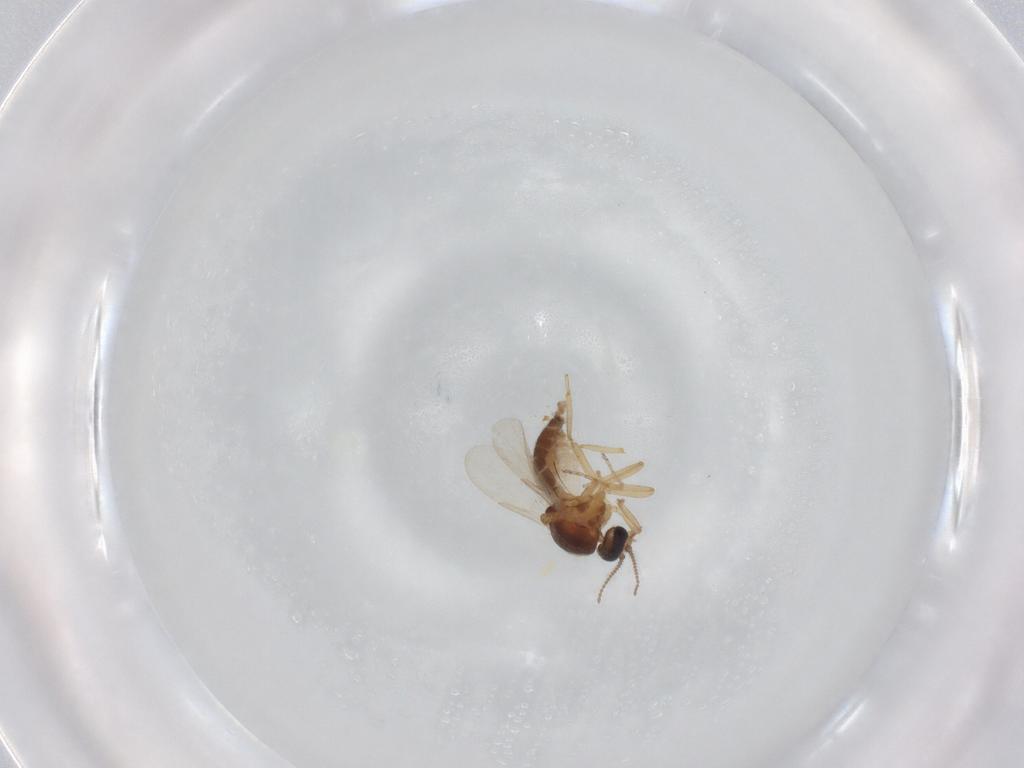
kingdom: Animalia
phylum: Arthropoda
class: Insecta
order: Diptera
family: Ceratopogonidae
